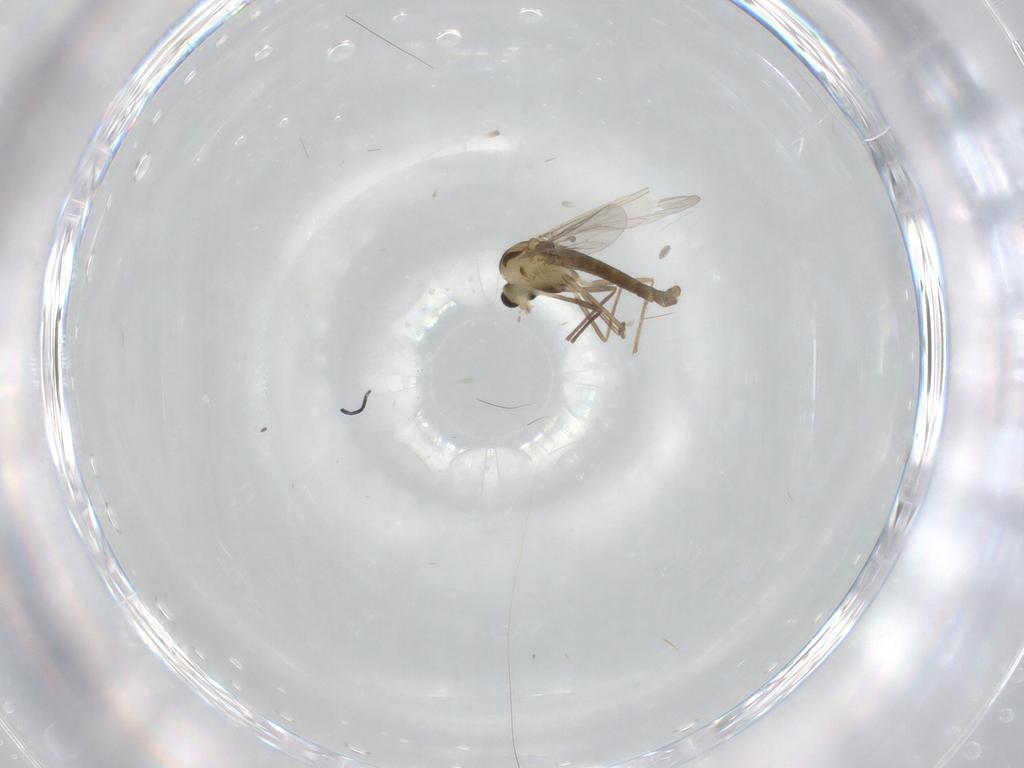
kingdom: Animalia
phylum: Arthropoda
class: Insecta
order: Diptera
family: Chironomidae
